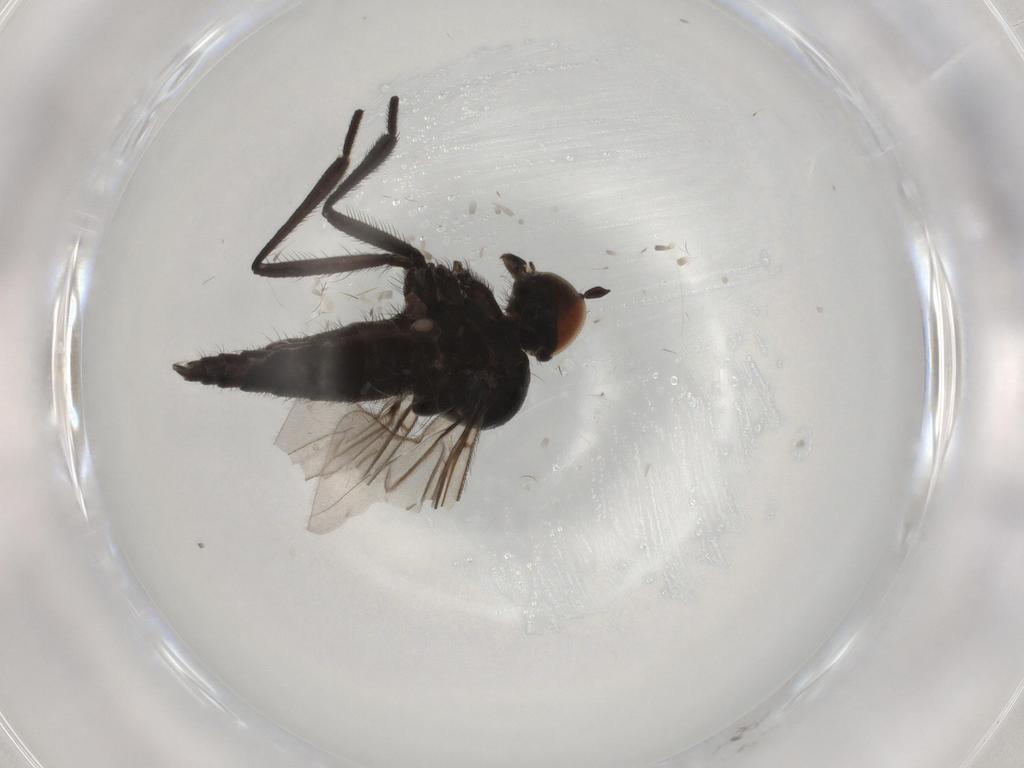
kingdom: Animalia
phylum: Arthropoda
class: Insecta
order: Diptera
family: Hybotidae
